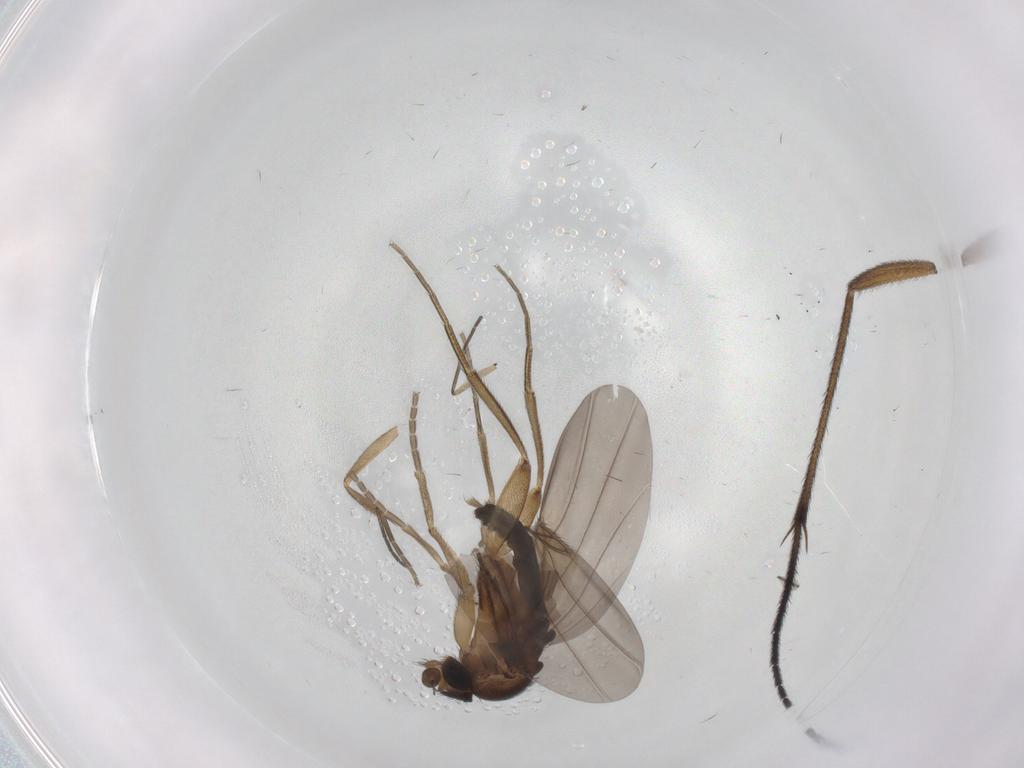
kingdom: Animalia
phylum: Arthropoda
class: Insecta
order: Diptera
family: Sciaridae
